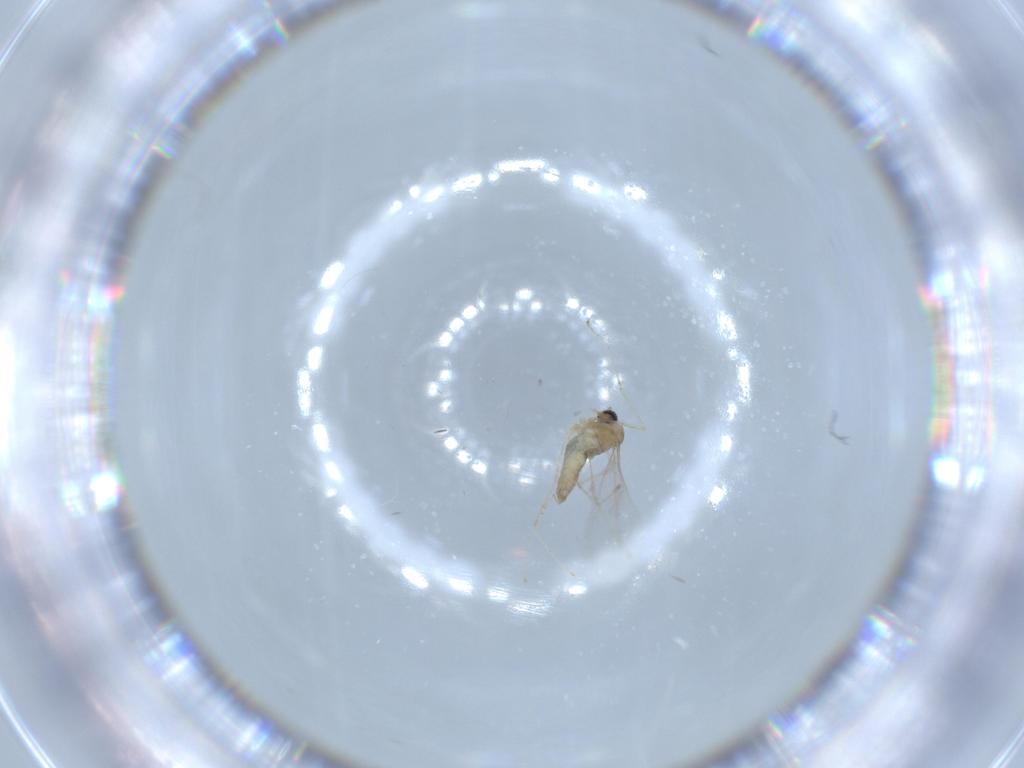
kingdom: Animalia
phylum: Arthropoda
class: Insecta
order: Diptera
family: Cecidomyiidae
